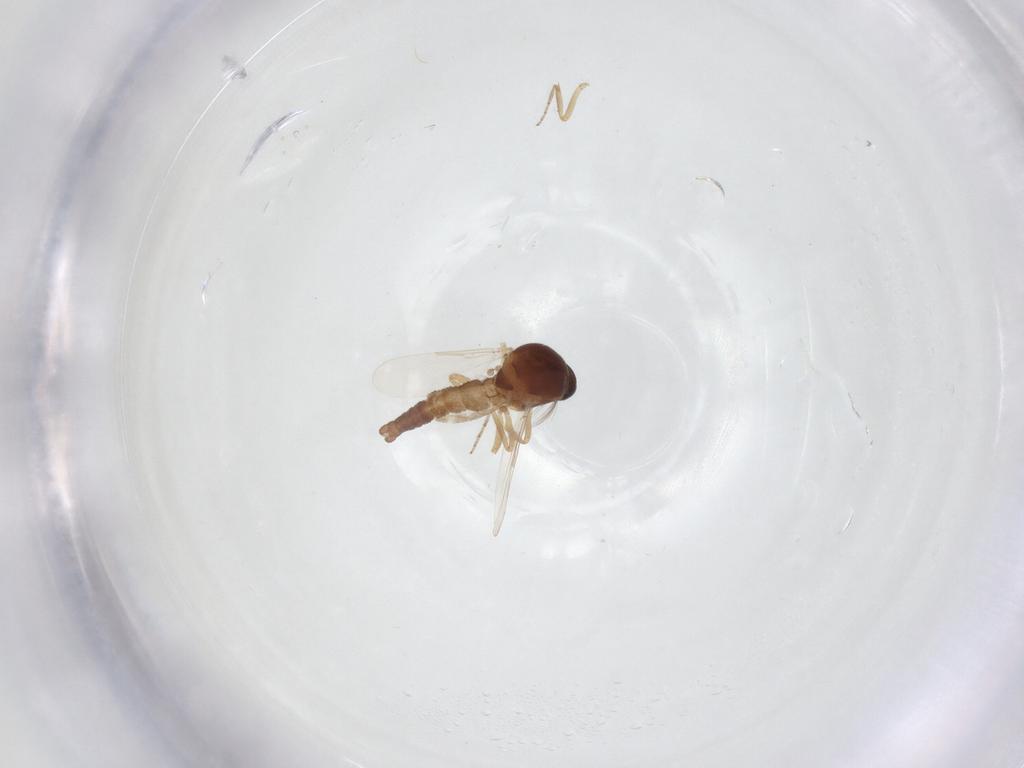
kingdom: Animalia
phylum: Arthropoda
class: Insecta
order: Diptera
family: Ceratopogonidae
